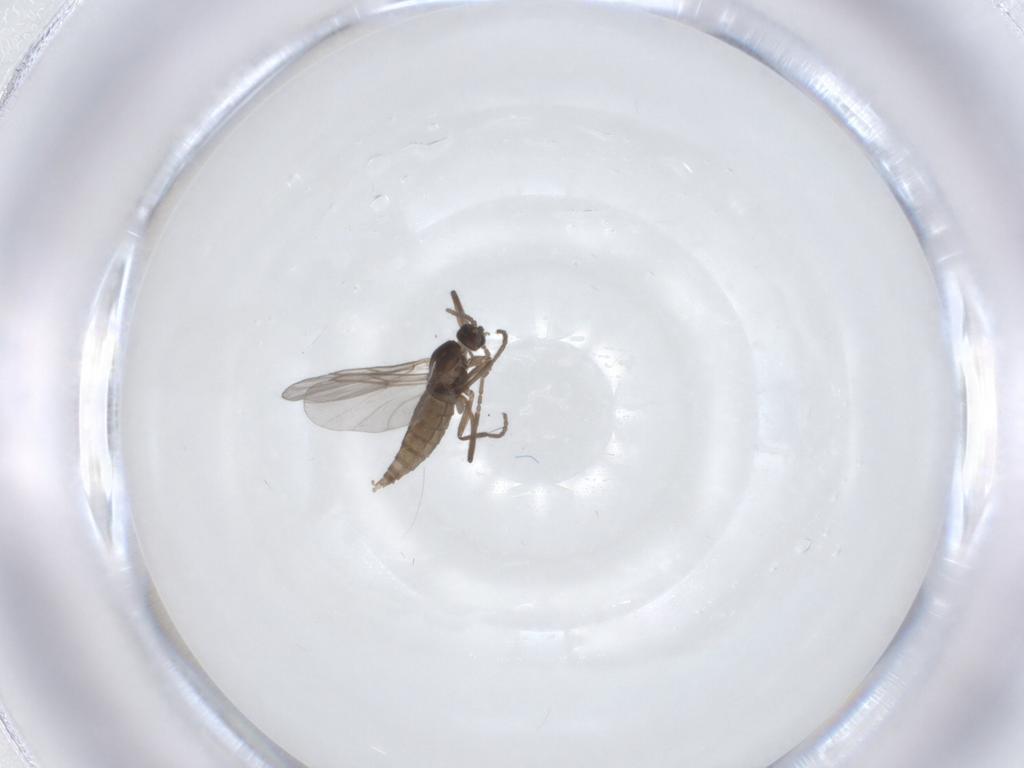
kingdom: Animalia
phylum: Arthropoda
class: Insecta
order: Diptera
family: Cecidomyiidae
